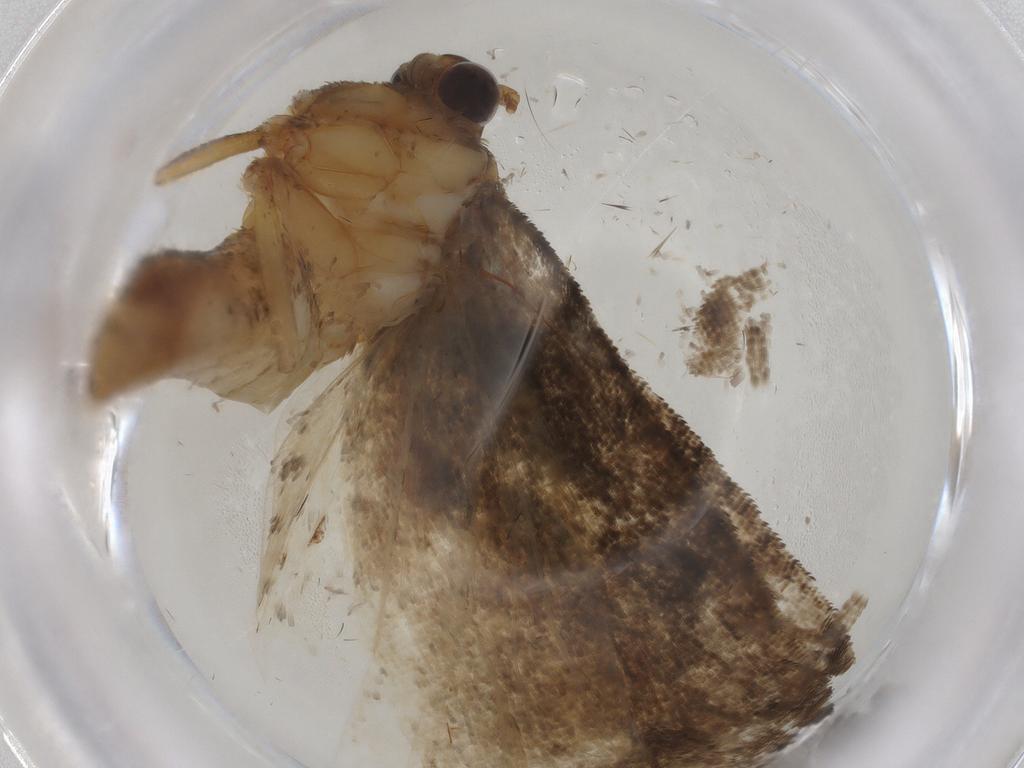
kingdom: Animalia
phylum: Arthropoda
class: Insecta
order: Lepidoptera
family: Tortricidae
